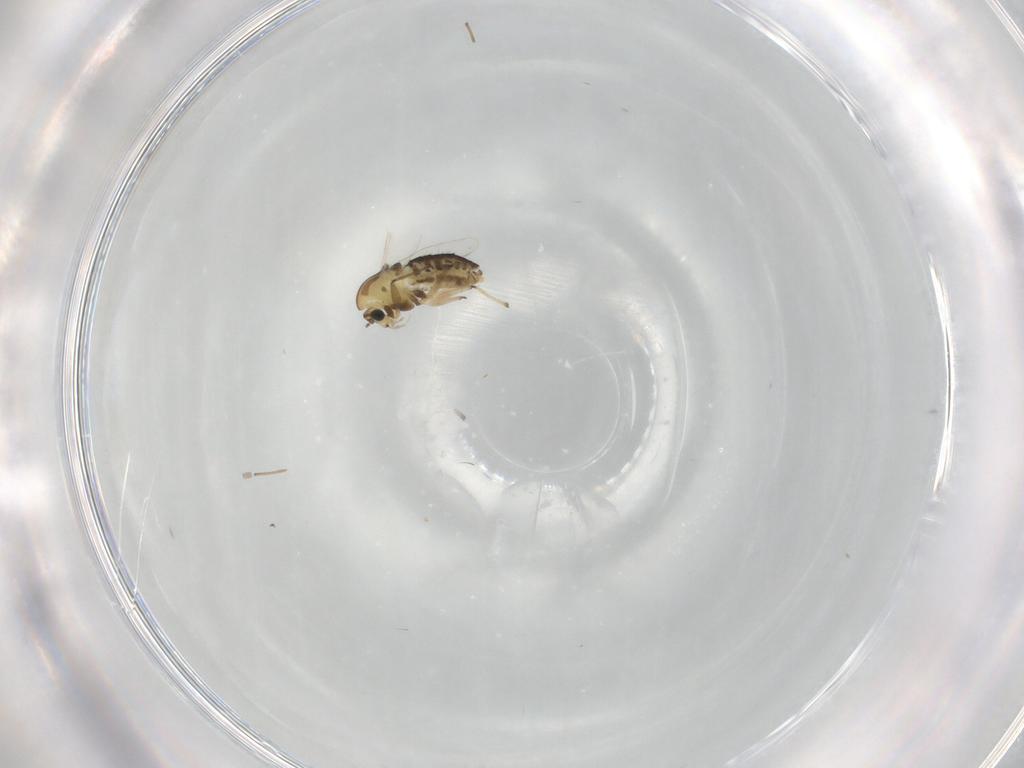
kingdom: Animalia
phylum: Arthropoda
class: Insecta
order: Diptera
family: Chironomidae
